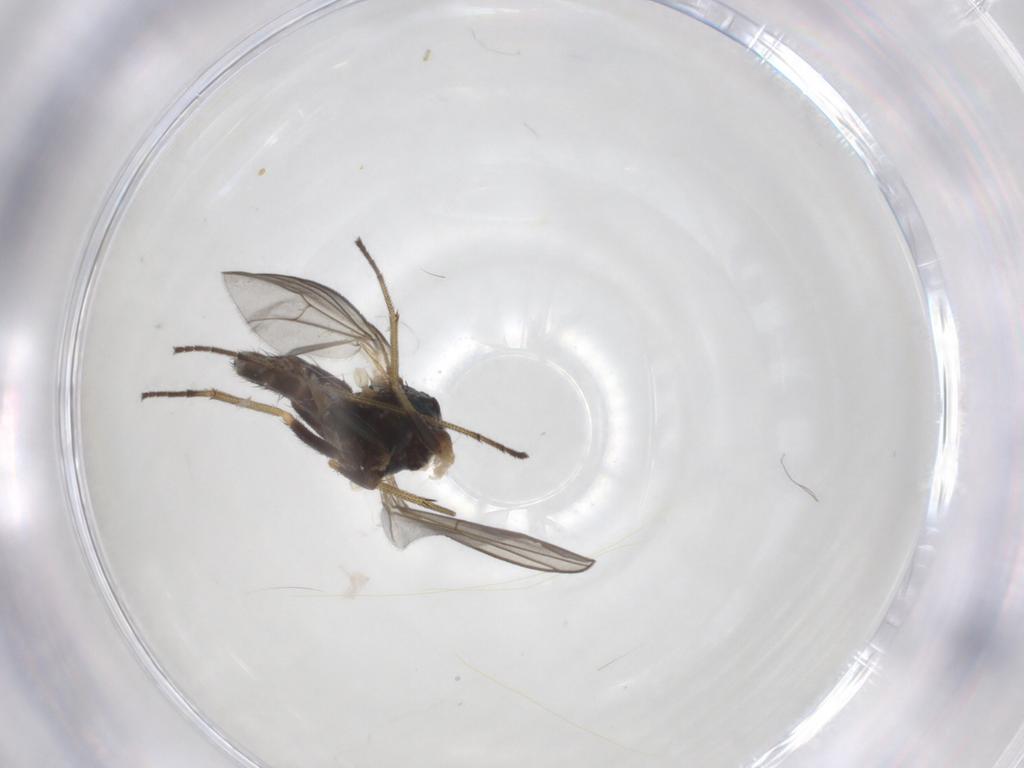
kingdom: Animalia
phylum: Arthropoda
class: Insecta
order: Diptera
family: Dolichopodidae
